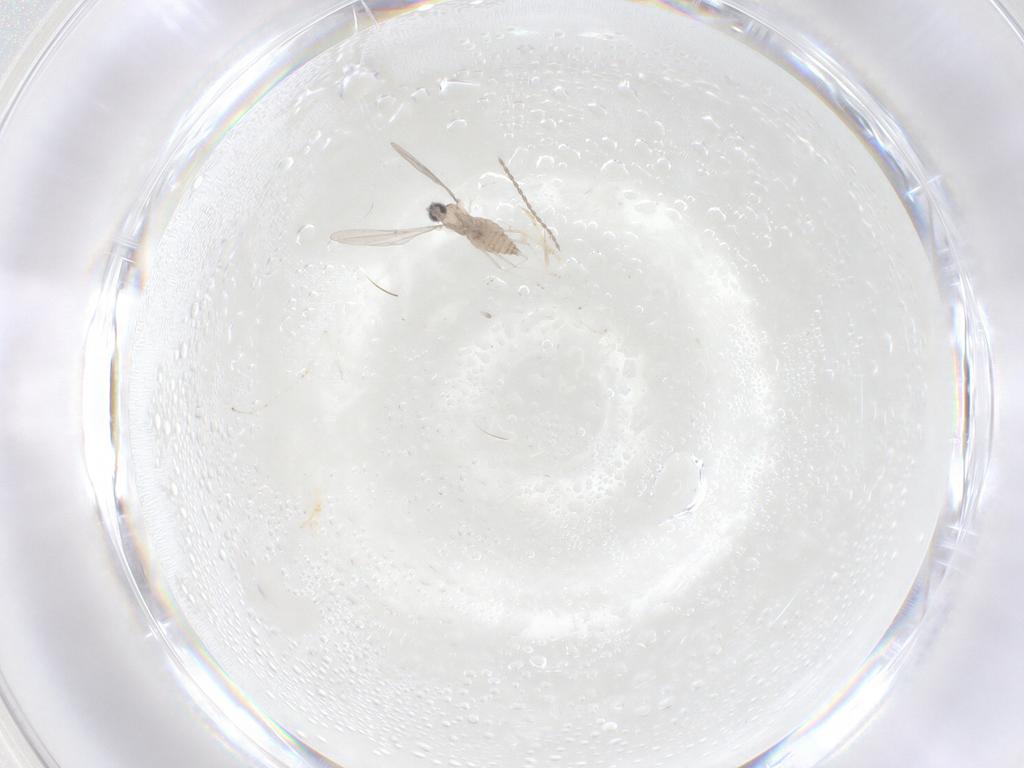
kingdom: Animalia
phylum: Arthropoda
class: Insecta
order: Diptera
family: Cecidomyiidae
